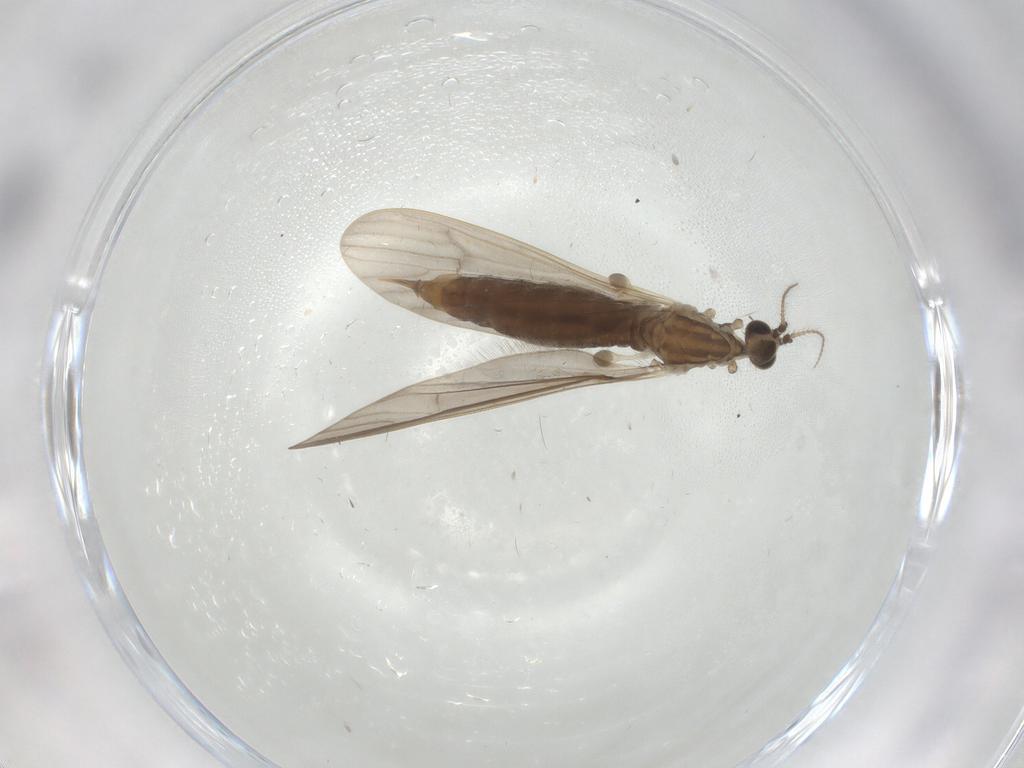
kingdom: Animalia
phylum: Arthropoda
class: Insecta
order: Diptera
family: Limoniidae
